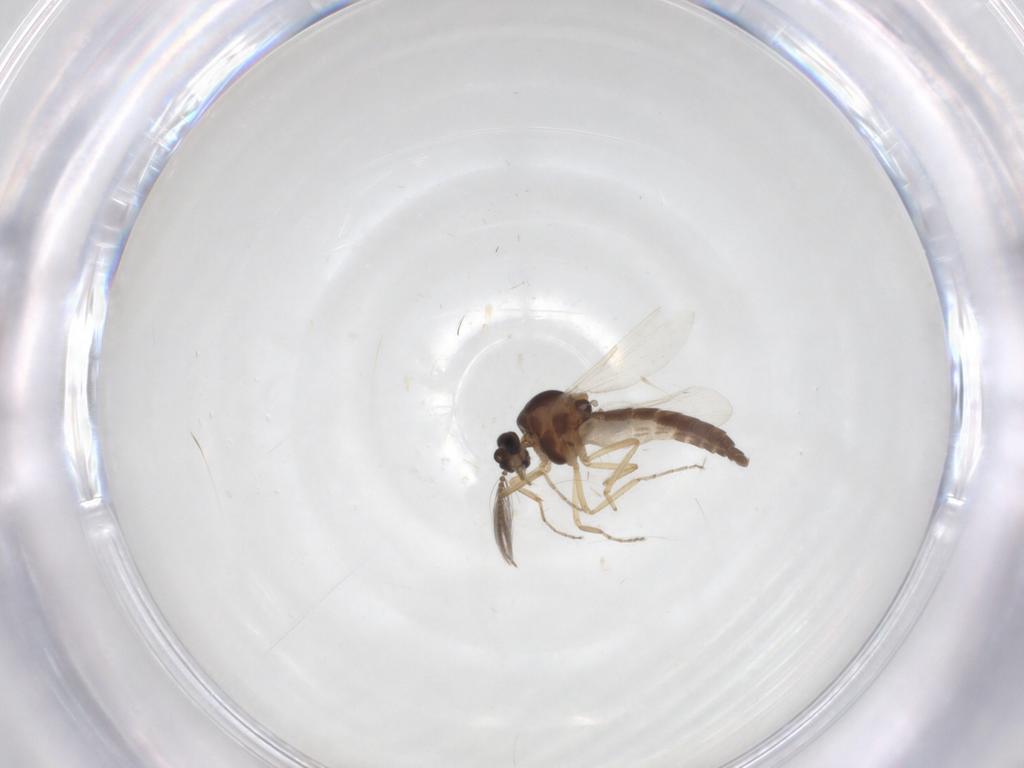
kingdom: Animalia
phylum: Arthropoda
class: Insecta
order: Diptera
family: Ceratopogonidae
